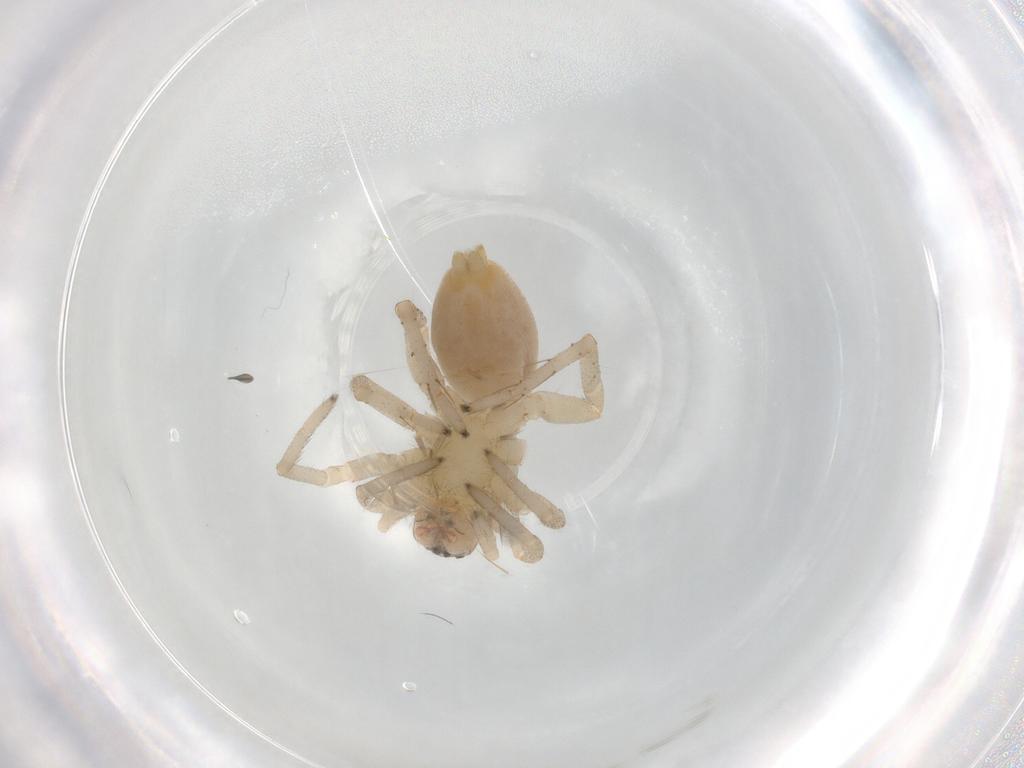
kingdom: Animalia
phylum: Arthropoda
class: Arachnida
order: Araneae
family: Clubionidae
